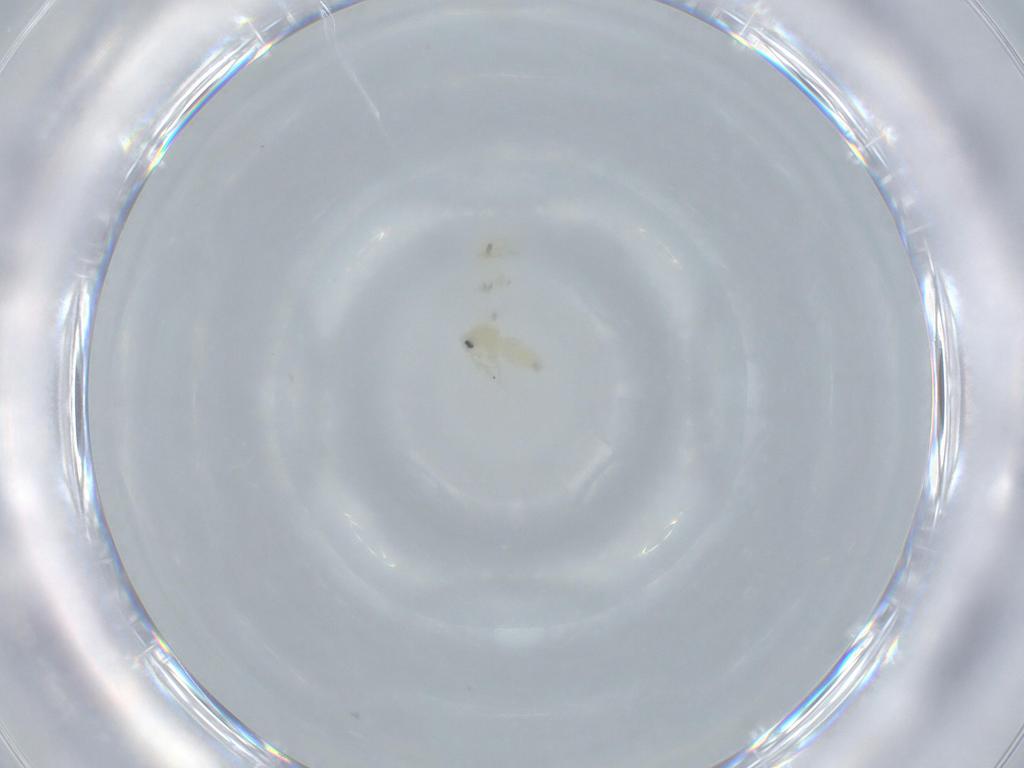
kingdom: Animalia
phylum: Arthropoda
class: Insecta
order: Hemiptera
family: Aleyrodidae
